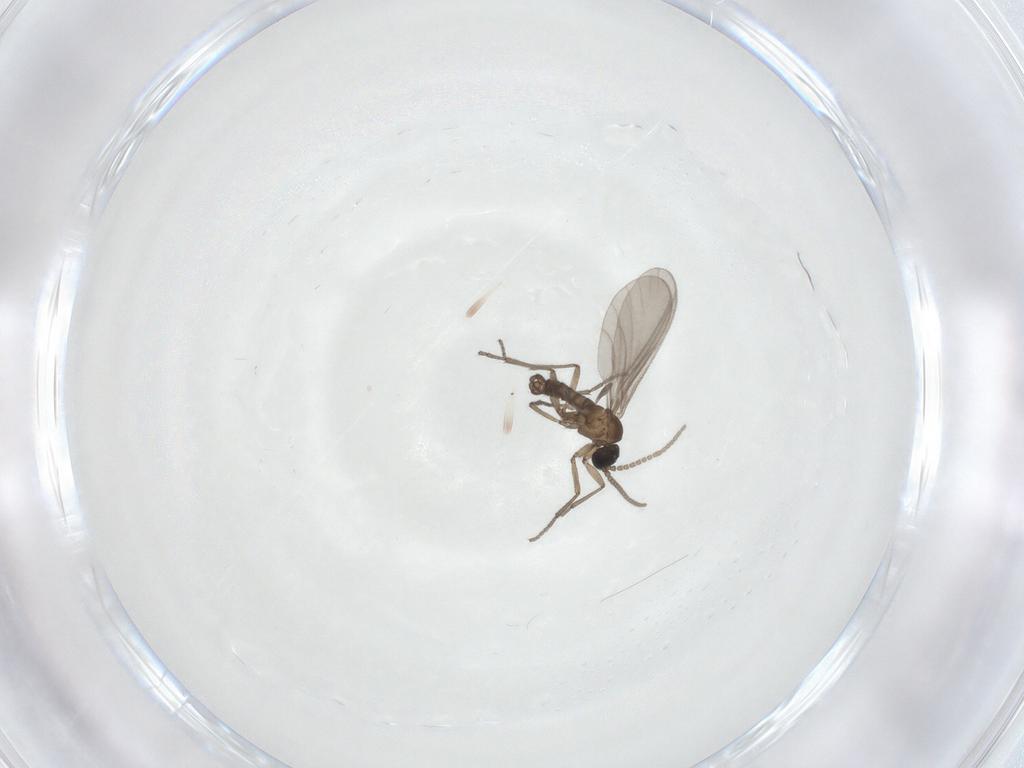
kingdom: Animalia
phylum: Arthropoda
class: Insecta
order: Diptera
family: Sciaridae
